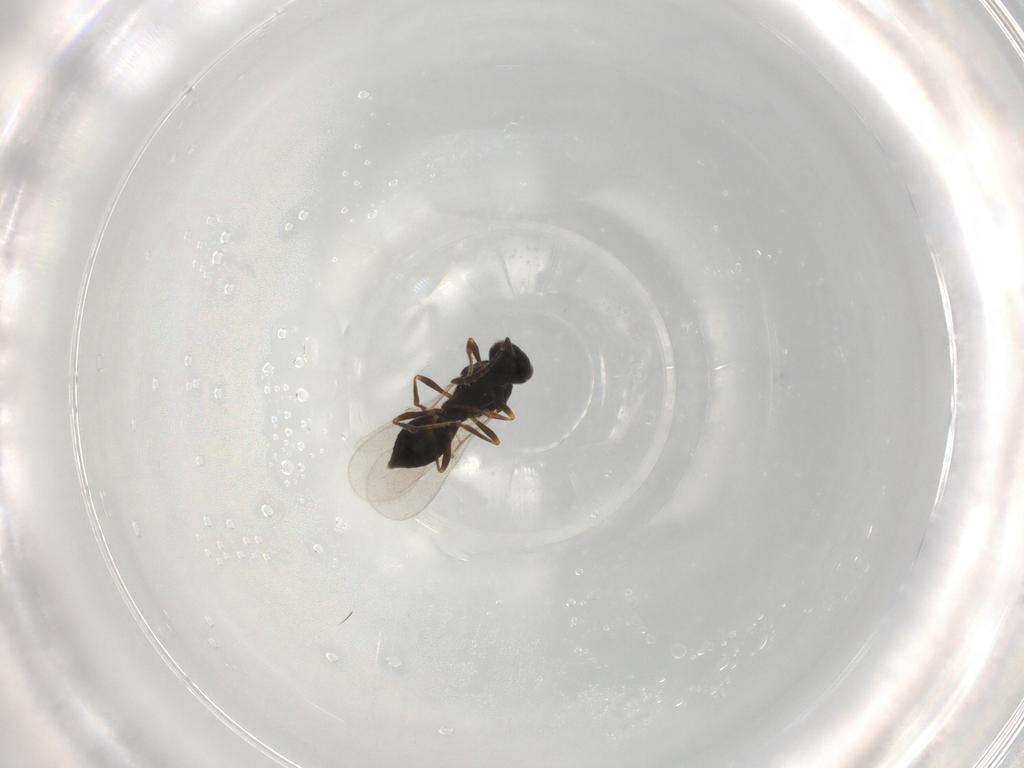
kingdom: Animalia
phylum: Arthropoda
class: Insecta
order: Hymenoptera
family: Platygastridae
